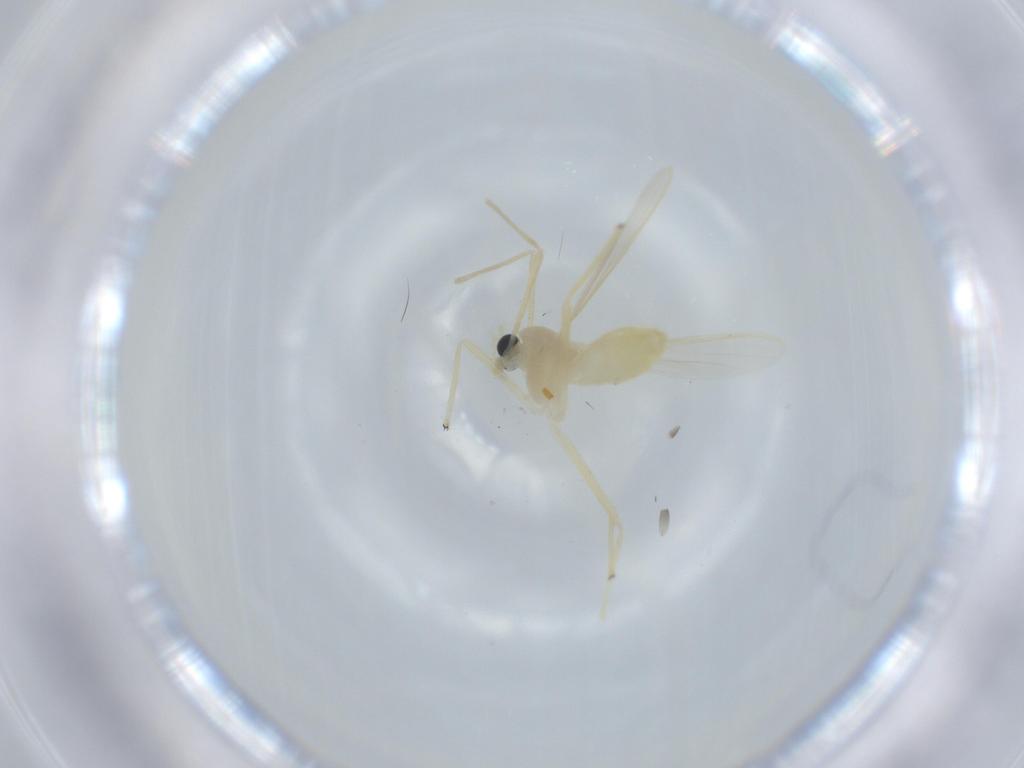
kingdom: Animalia
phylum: Arthropoda
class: Insecta
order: Diptera
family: Chironomidae
